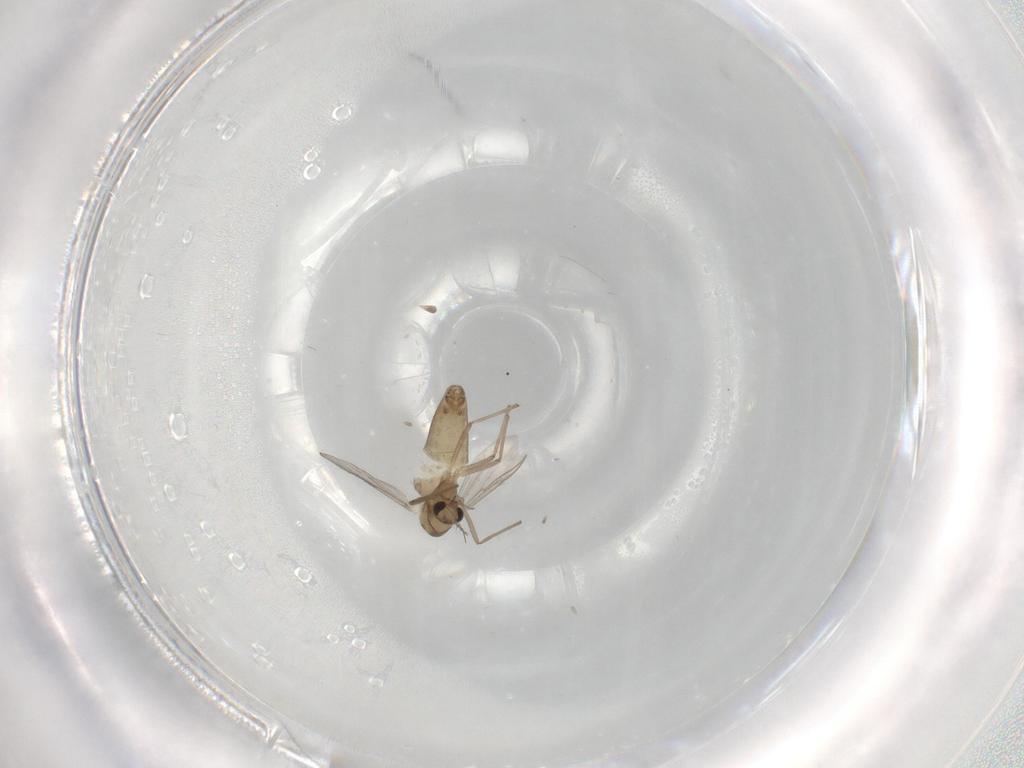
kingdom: Animalia
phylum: Arthropoda
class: Insecta
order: Diptera
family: Chironomidae
